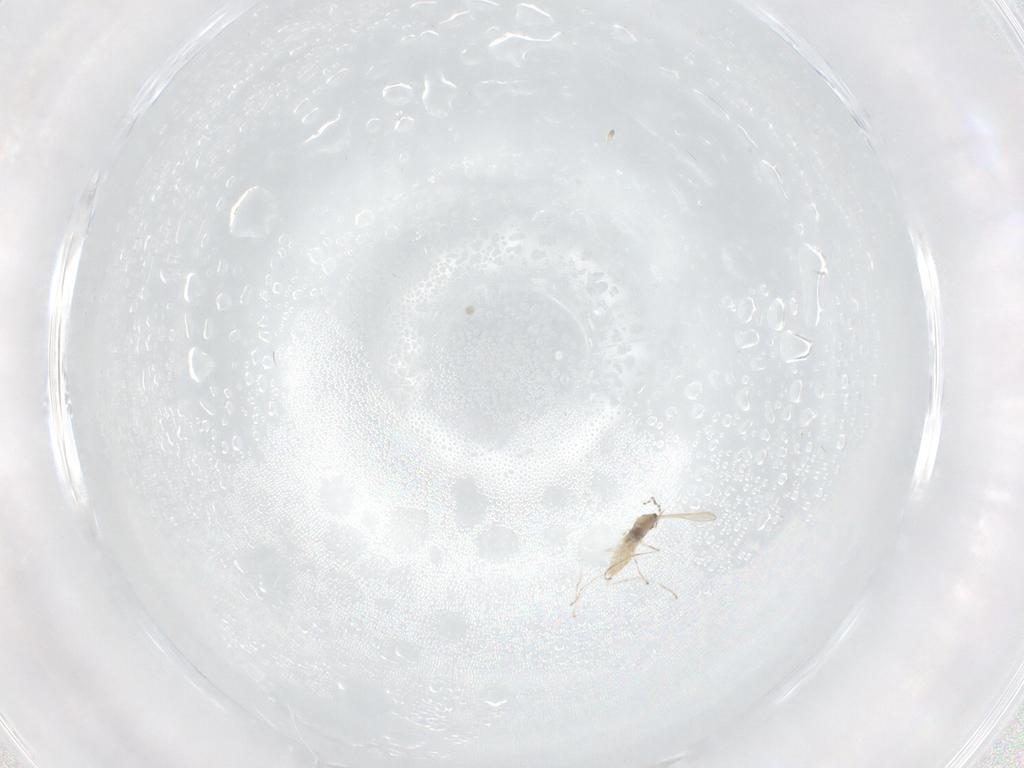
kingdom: Animalia
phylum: Arthropoda
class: Insecta
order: Diptera
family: Cecidomyiidae
